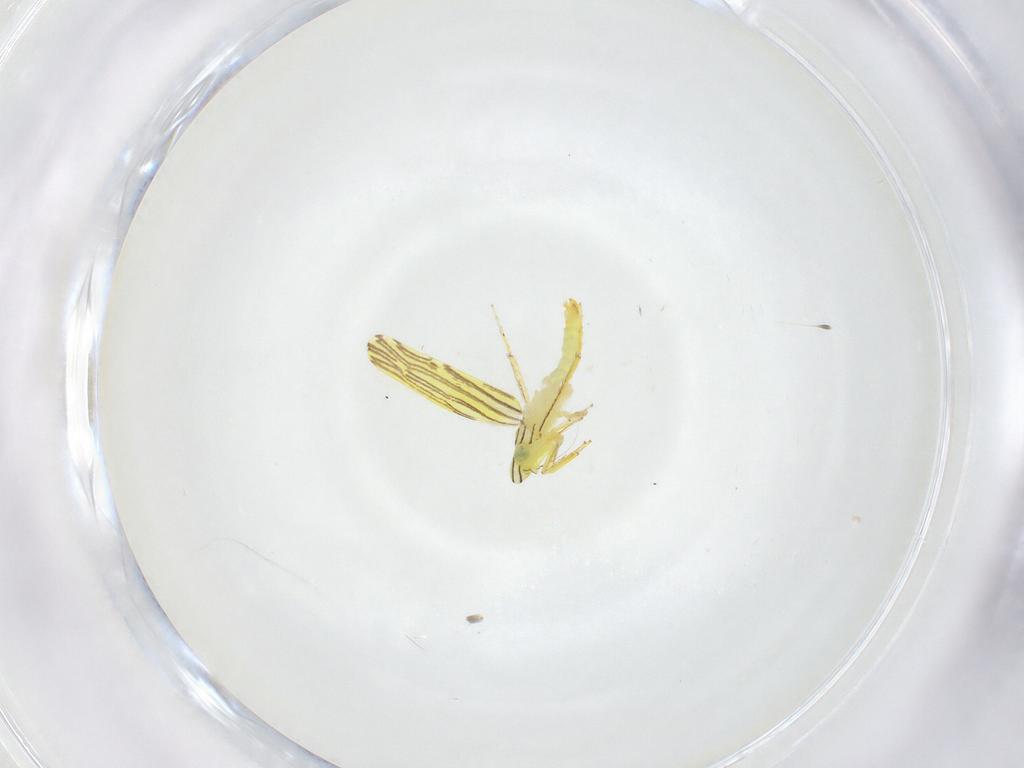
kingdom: Animalia
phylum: Arthropoda
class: Insecta
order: Hemiptera
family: Cicadellidae
